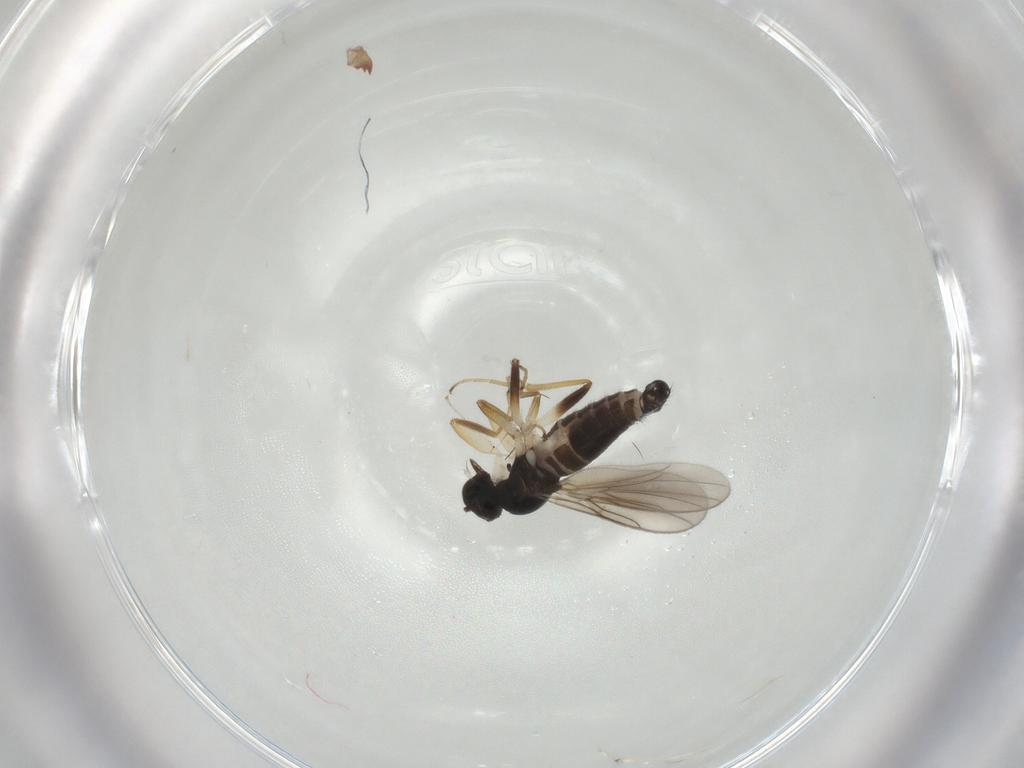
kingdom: Animalia
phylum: Arthropoda
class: Insecta
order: Diptera
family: Hybotidae
